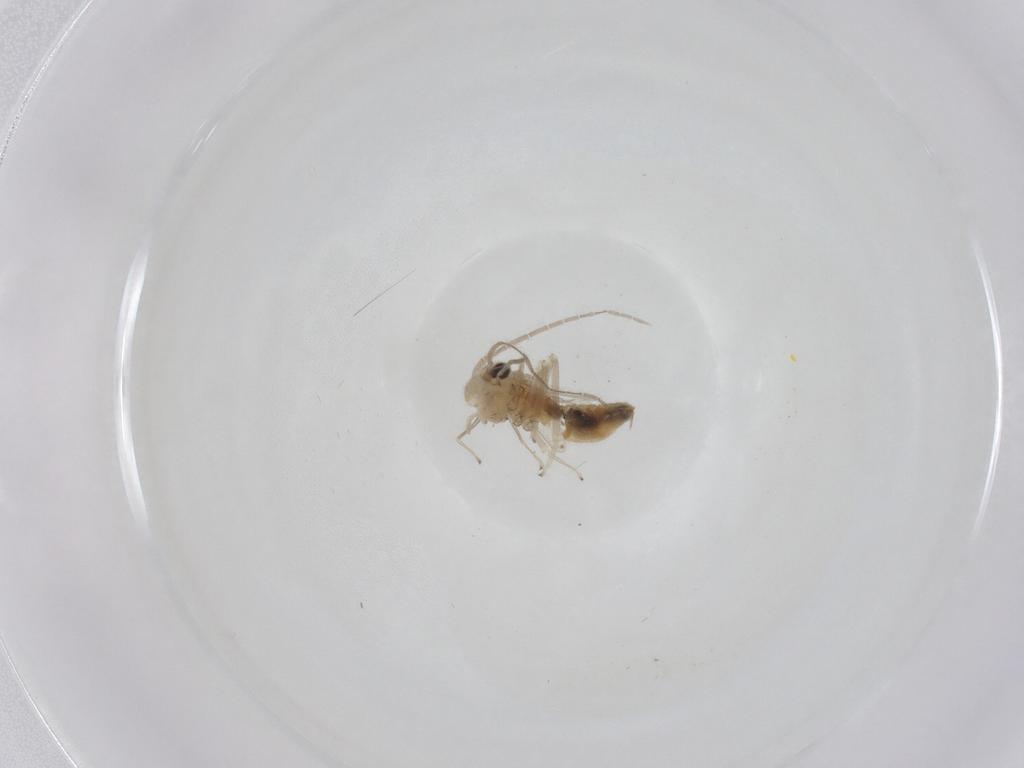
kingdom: Animalia
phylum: Arthropoda
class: Insecta
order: Psocodea
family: Caeciliusidae
